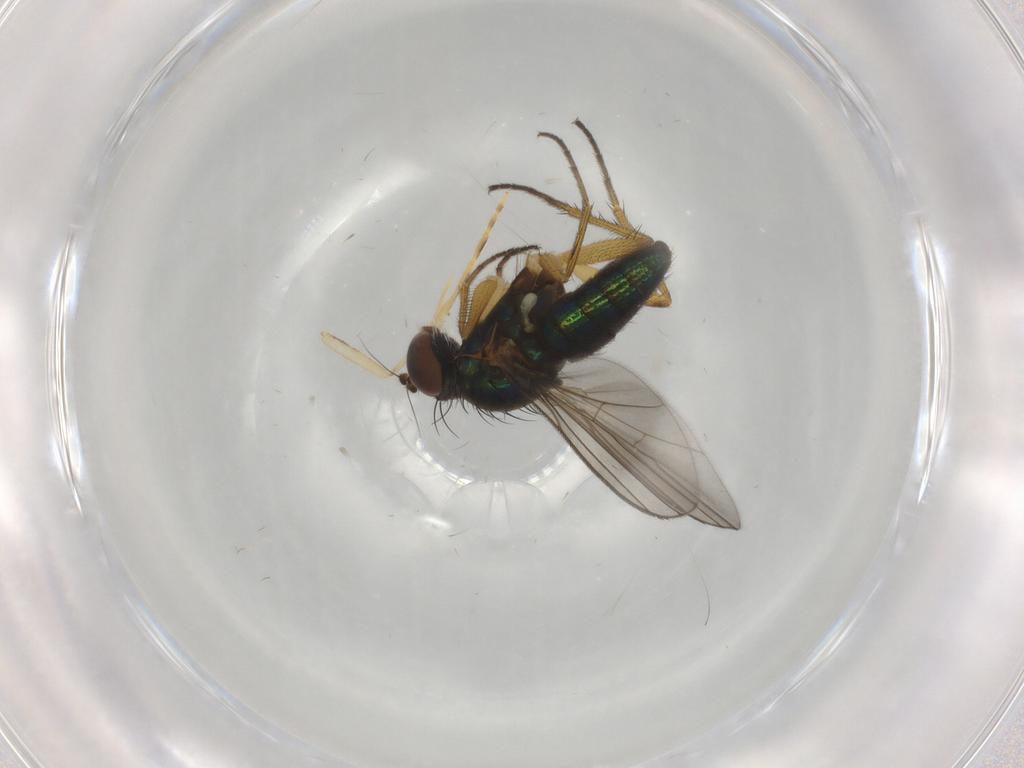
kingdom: Animalia
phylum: Arthropoda
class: Insecta
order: Diptera
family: Dolichopodidae
